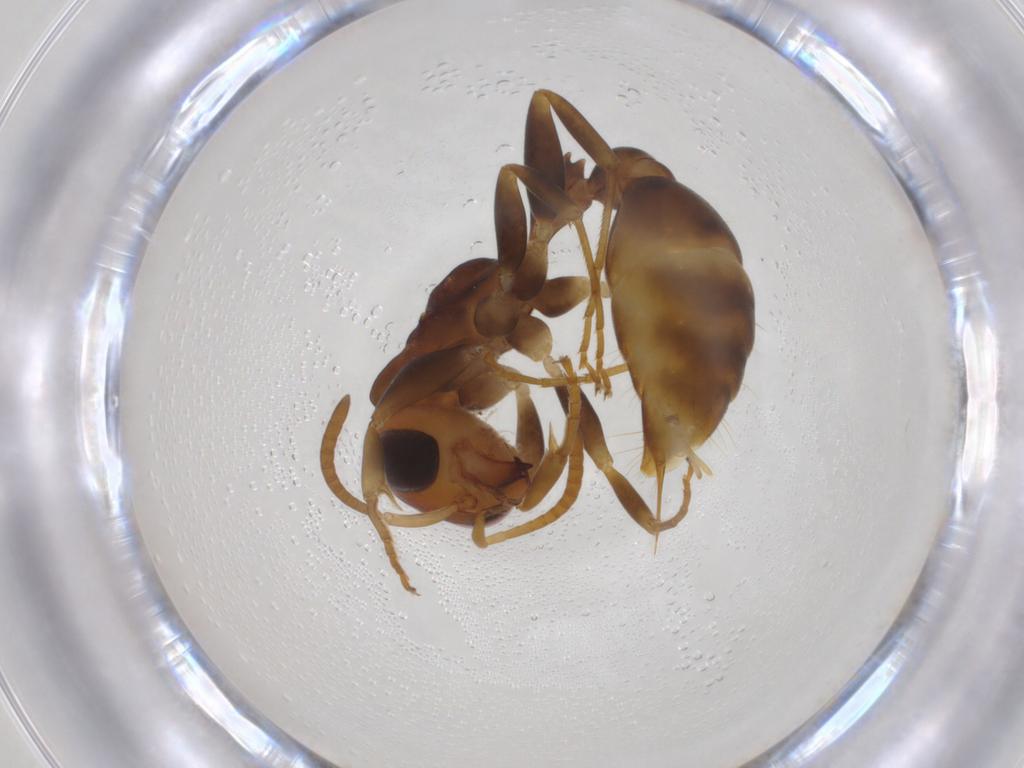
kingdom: Animalia
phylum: Arthropoda
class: Insecta
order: Hymenoptera
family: Formicidae
